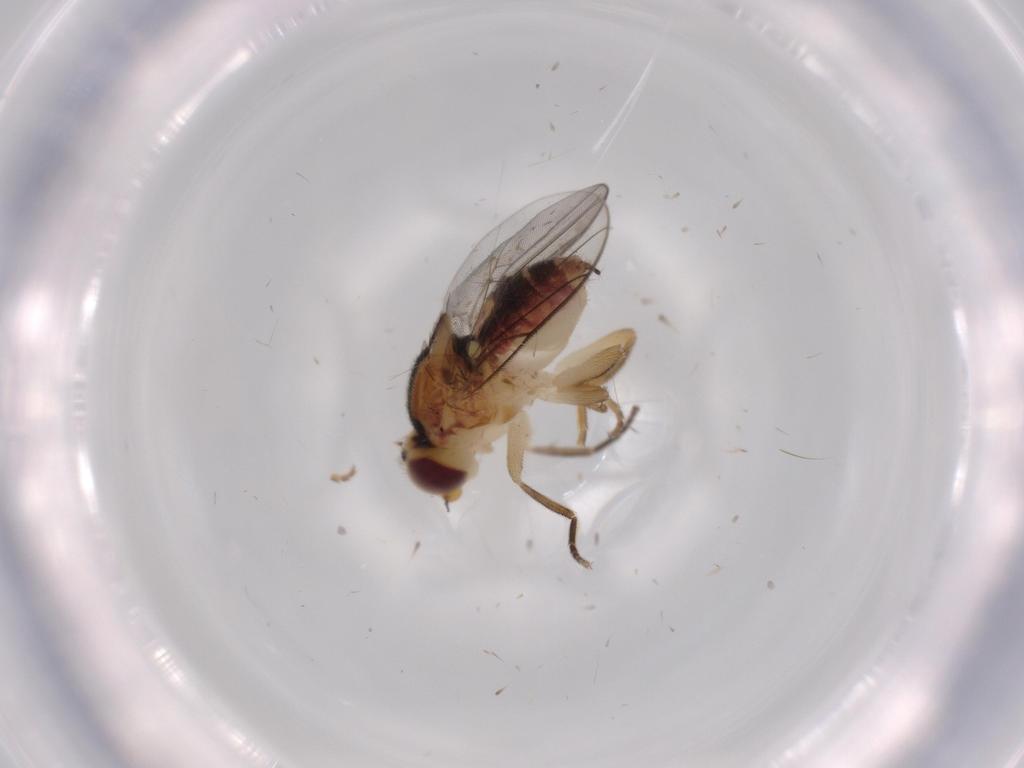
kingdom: Animalia
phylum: Arthropoda
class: Insecta
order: Diptera
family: Chloropidae
